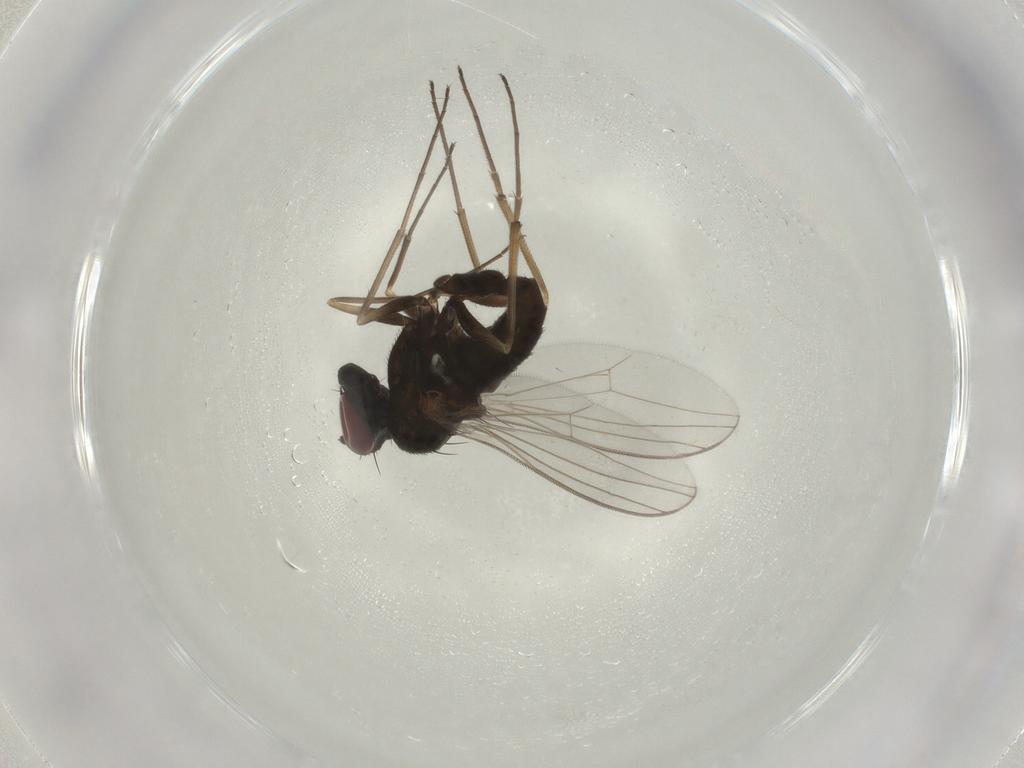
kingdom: Animalia
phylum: Arthropoda
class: Insecta
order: Diptera
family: Dolichopodidae
